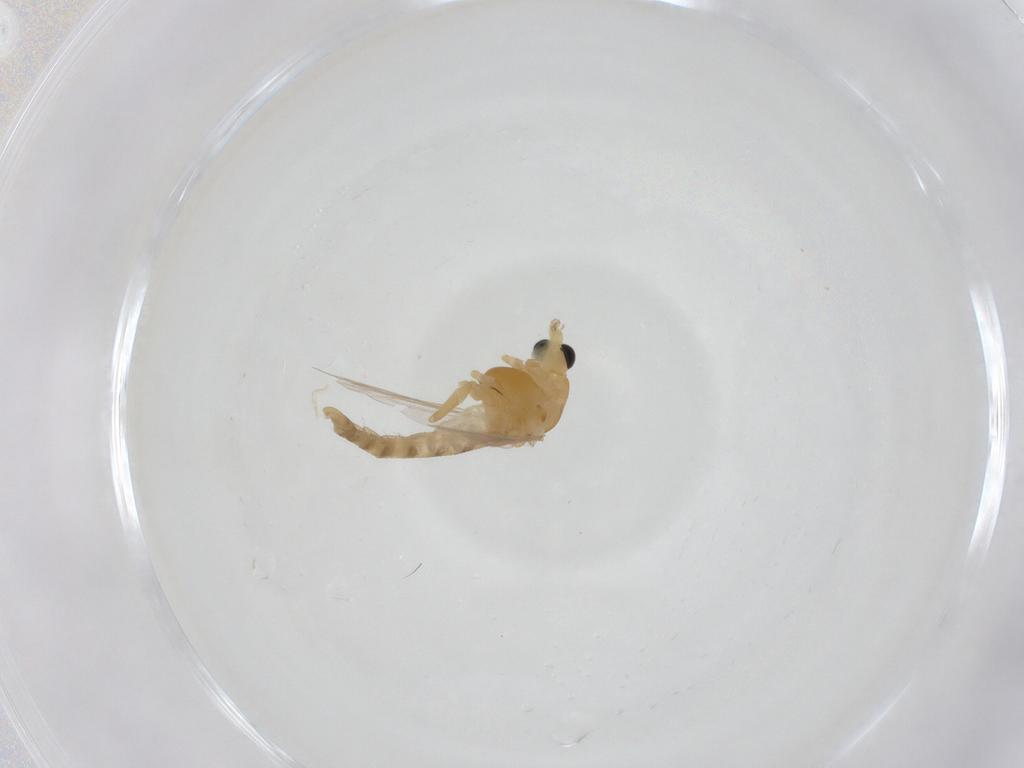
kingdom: Animalia
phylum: Arthropoda
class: Insecta
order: Diptera
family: Chironomidae
